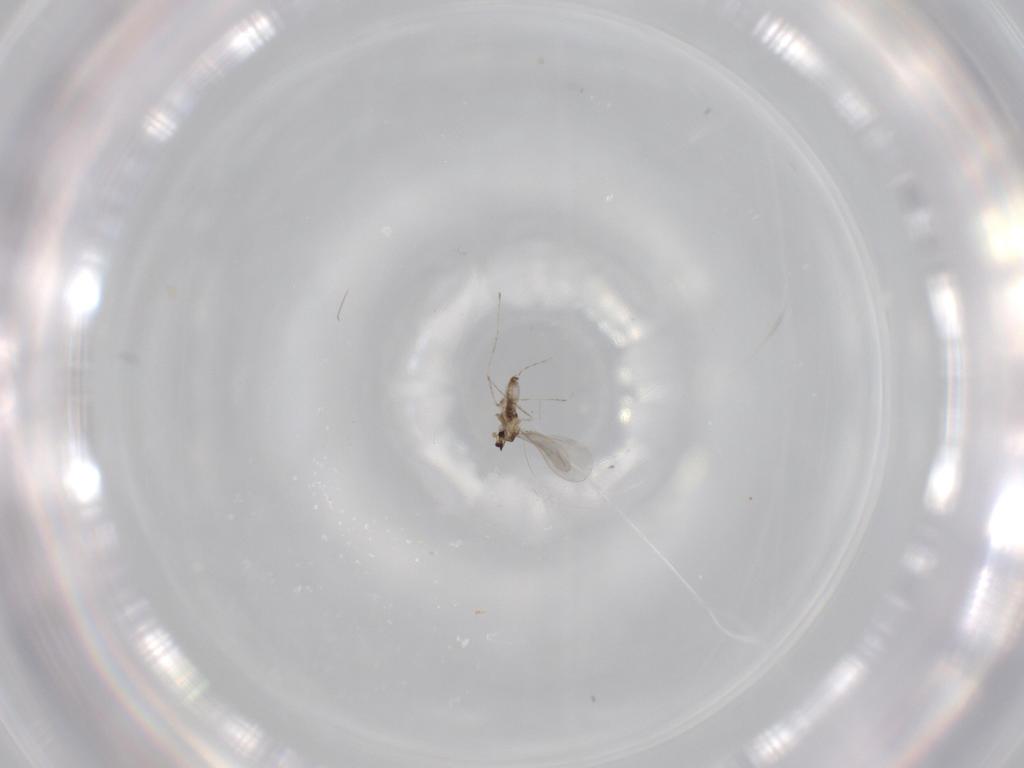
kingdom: Animalia
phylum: Arthropoda
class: Insecta
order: Diptera
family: Cecidomyiidae
